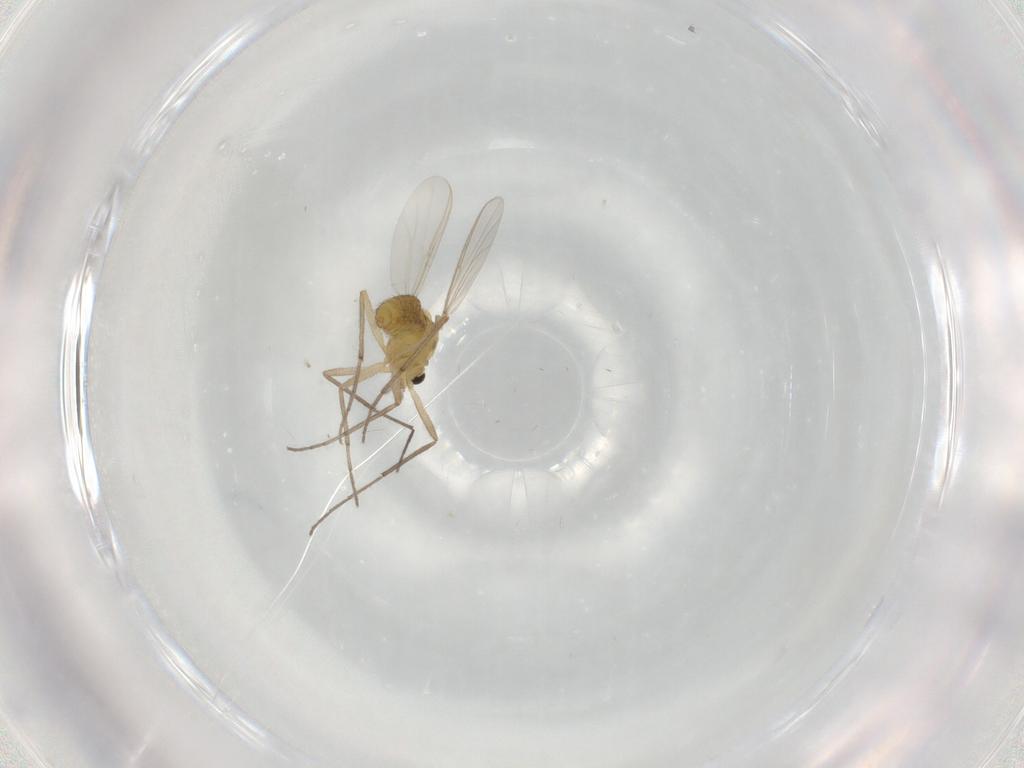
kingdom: Animalia
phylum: Arthropoda
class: Insecta
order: Diptera
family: Chironomidae
